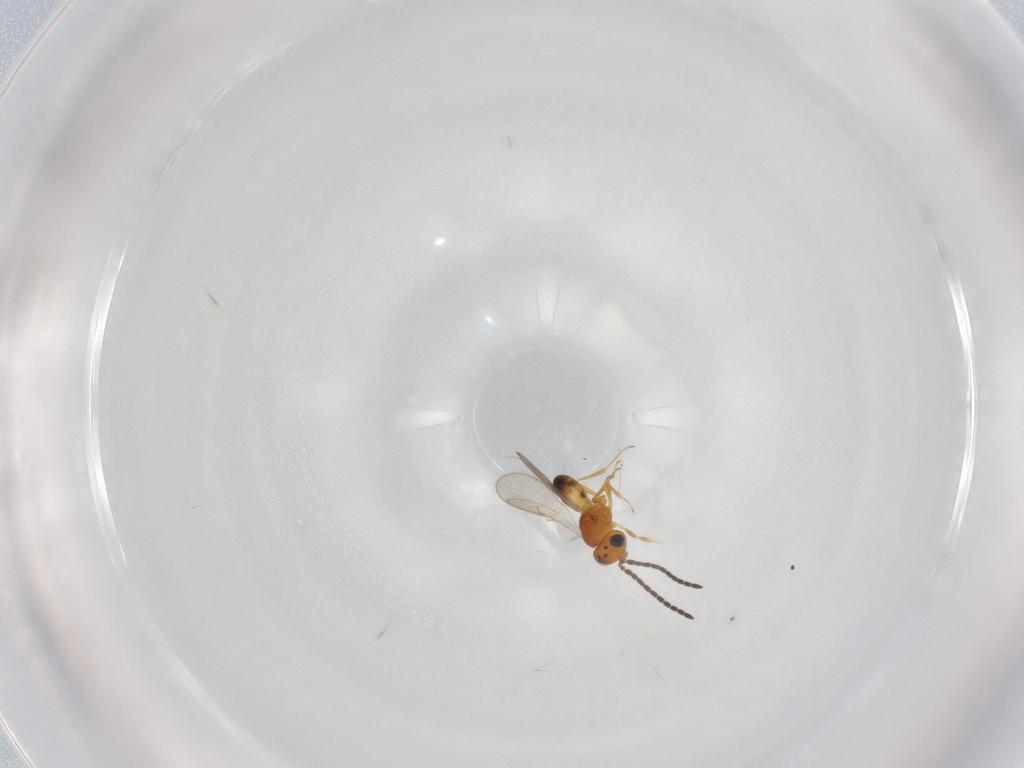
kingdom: Animalia
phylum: Arthropoda
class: Insecta
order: Hymenoptera
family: Scelionidae
